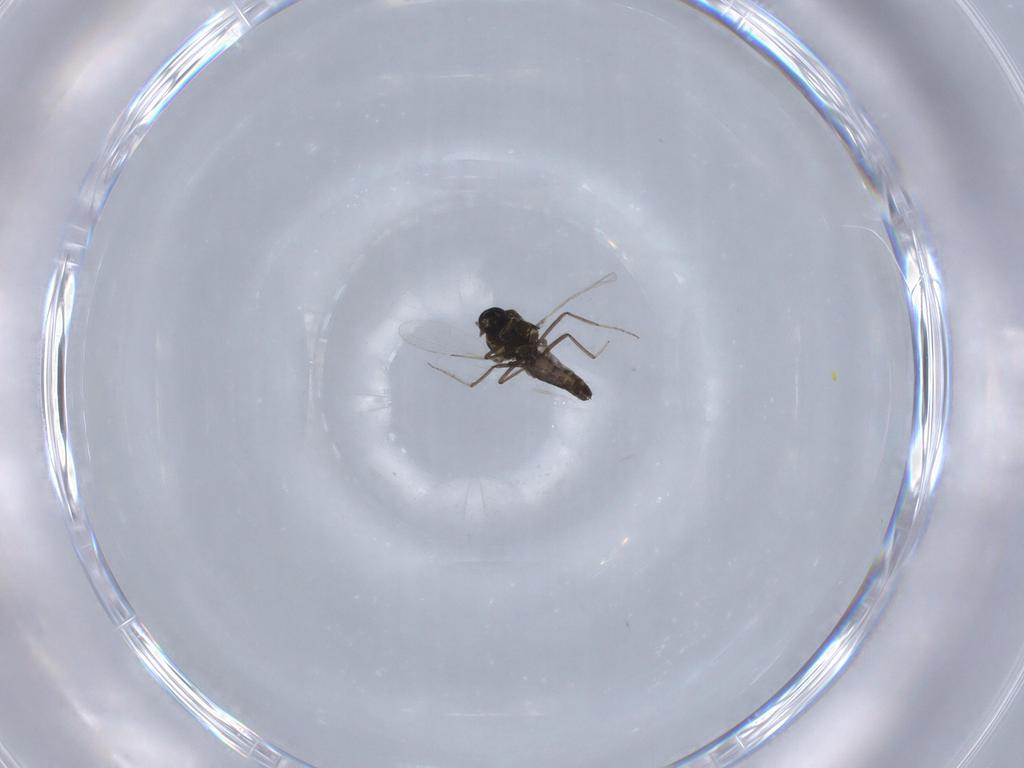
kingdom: Animalia
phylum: Arthropoda
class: Insecta
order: Diptera
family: Ceratopogonidae
